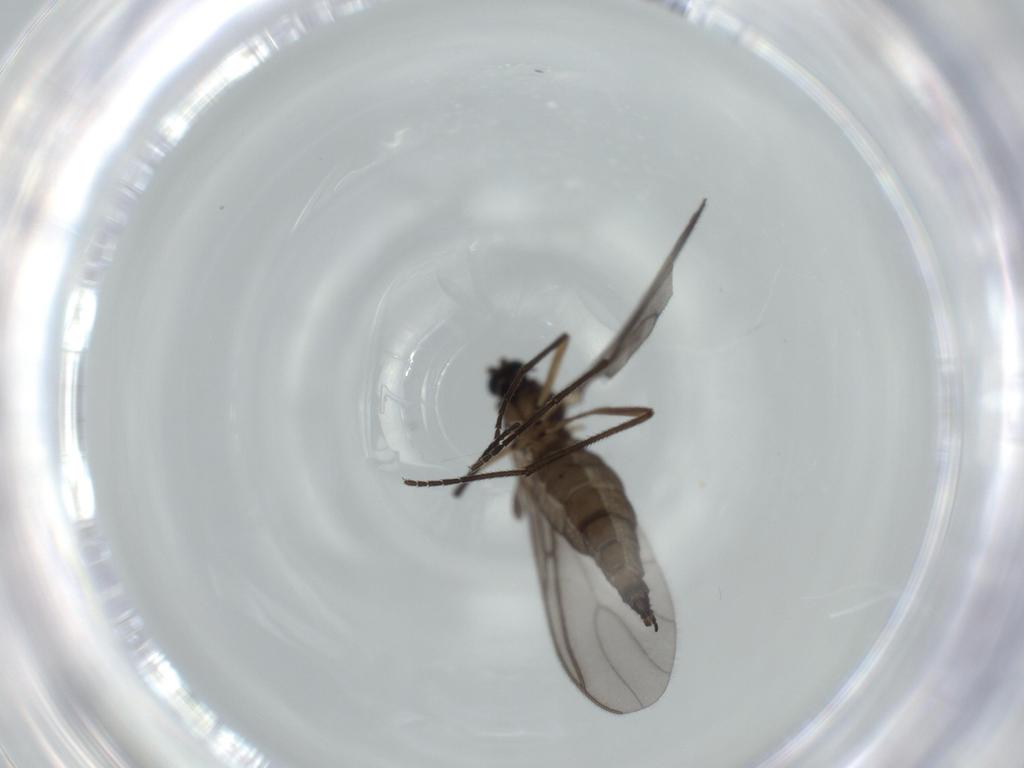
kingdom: Animalia
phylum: Arthropoda
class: Insecta
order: Diptera
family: Sciaridae
